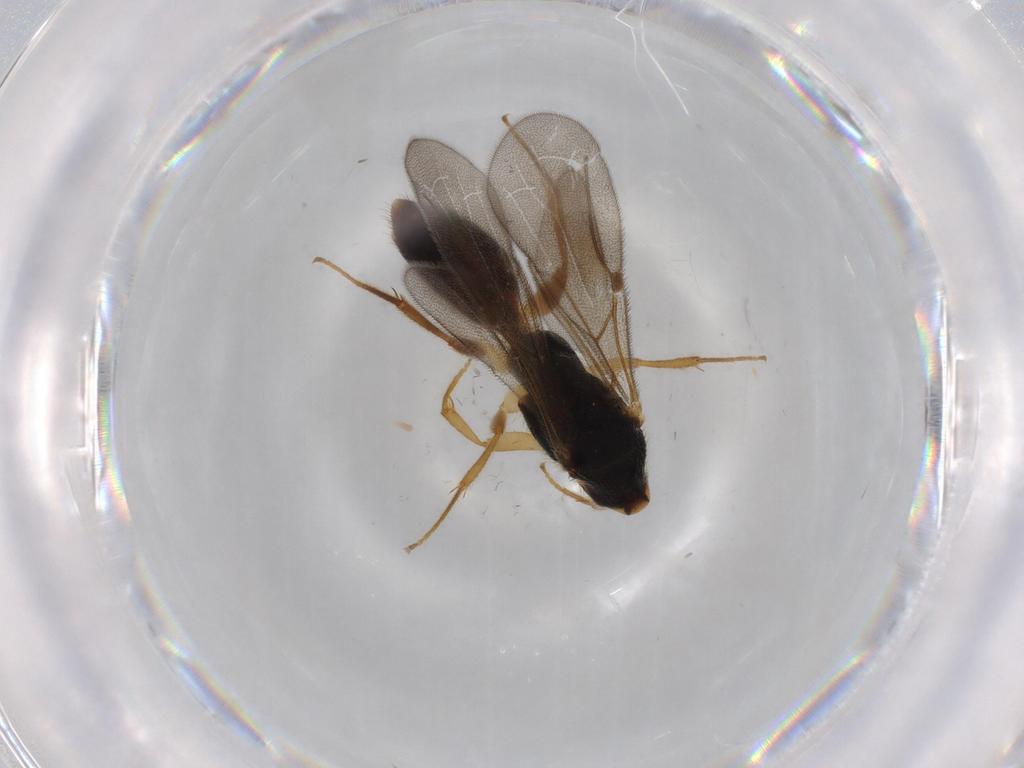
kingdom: Animalia
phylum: Arthropoda
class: Insecta
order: Hymenoptera
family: Bethylidae
